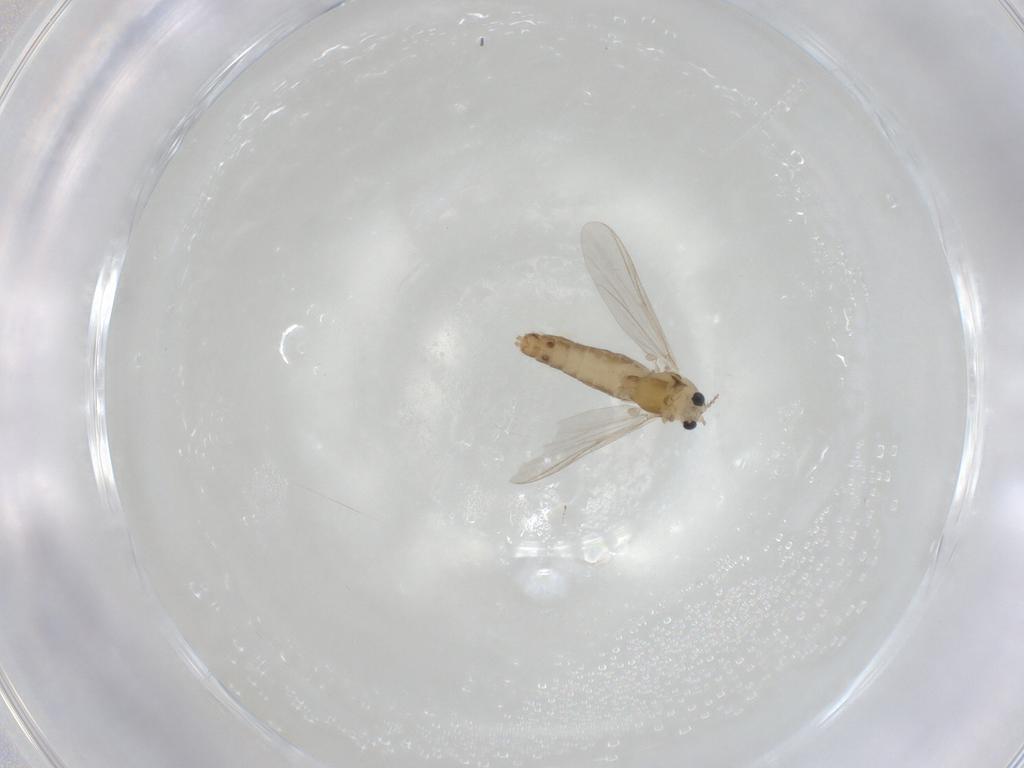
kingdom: Animalia
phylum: Arthropoda
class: Insecta
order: Diptera
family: Chironomidae
